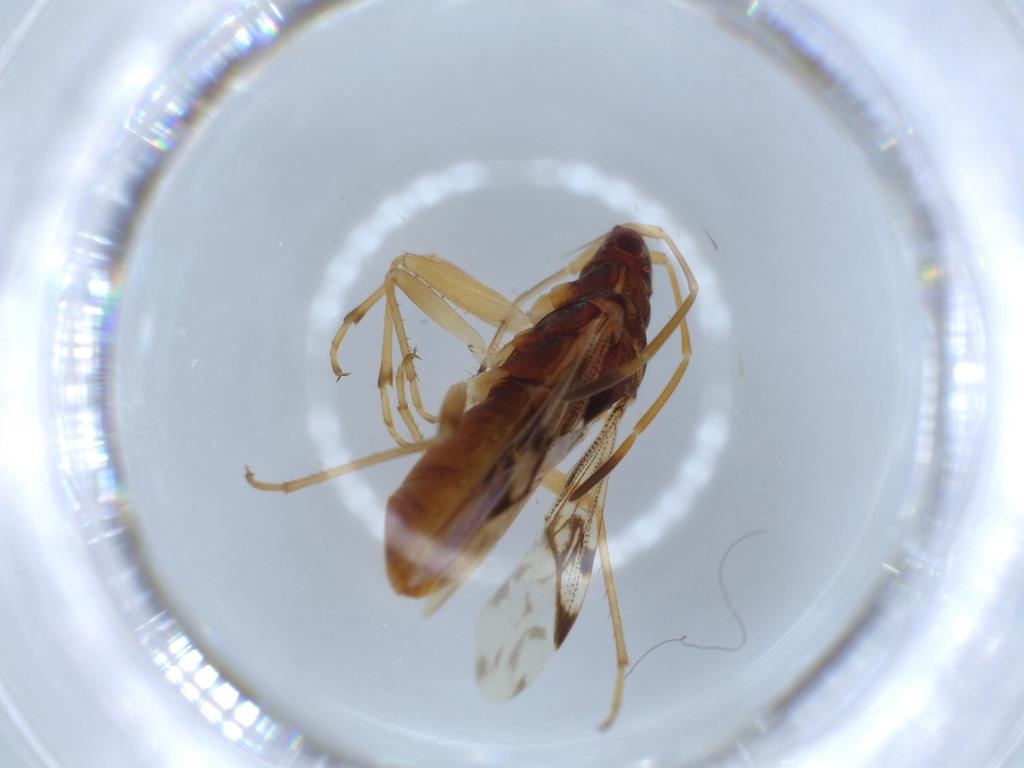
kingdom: Animalia
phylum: Arthropoda
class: Insecta
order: Hemiptera
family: Rhyparochromidae
